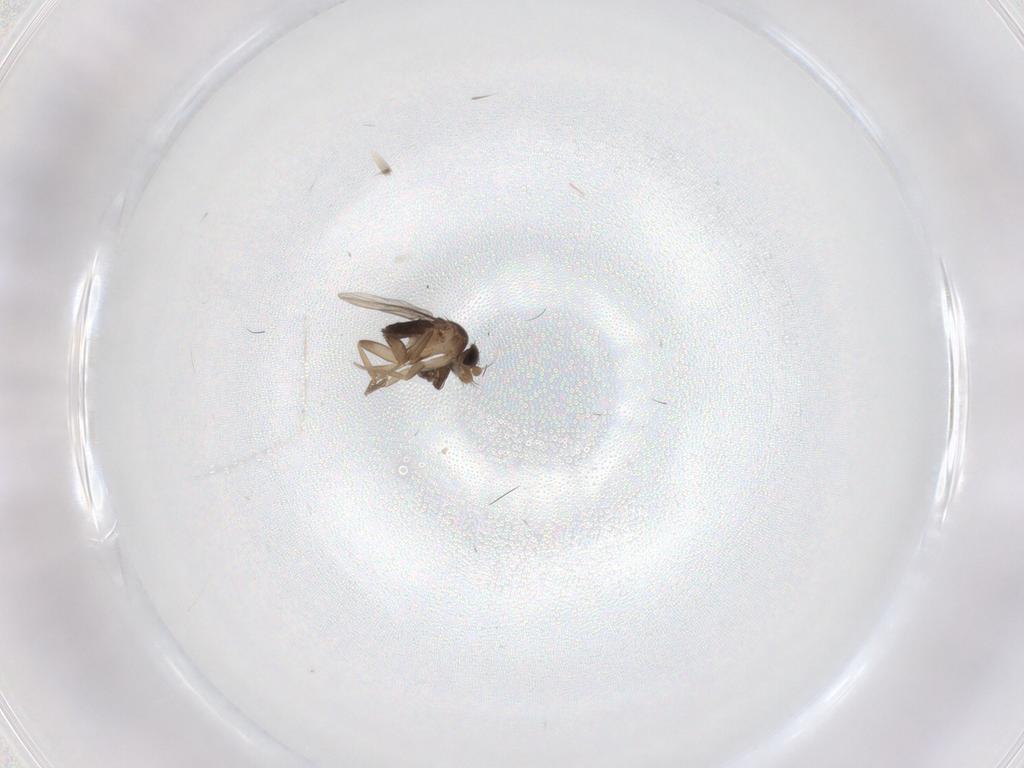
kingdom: Animalia
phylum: Arthropoda
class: Insecta
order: Diptera
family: Phoridae
